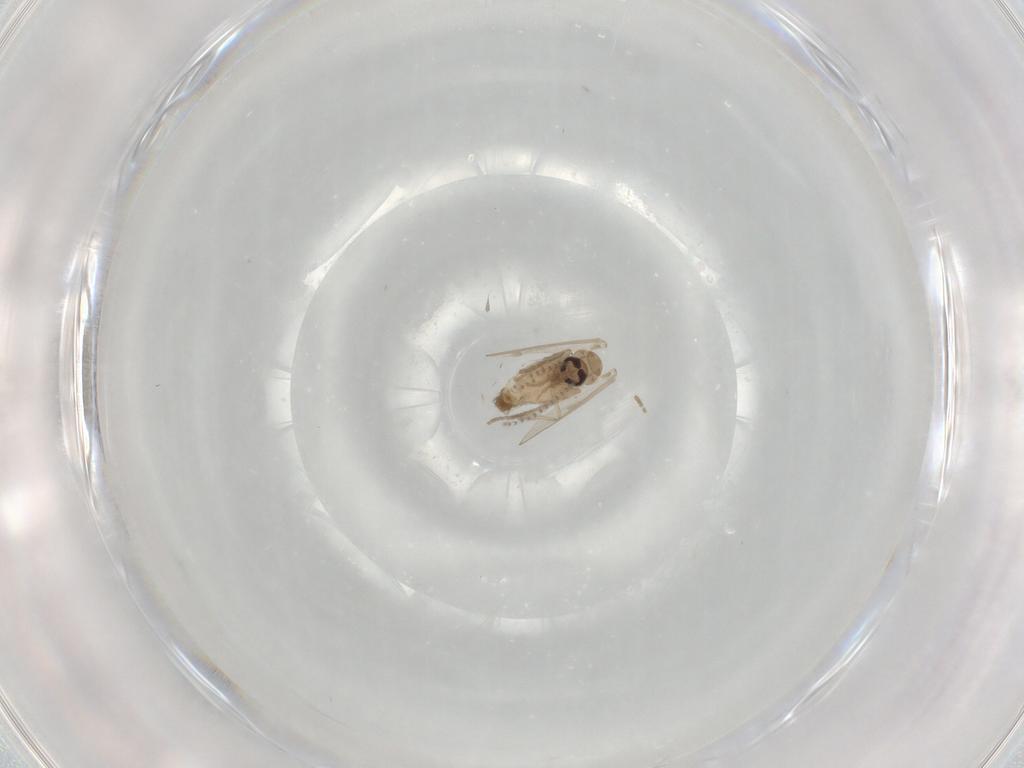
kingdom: Animalia
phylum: Arthropoda
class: Insecta
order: Diptera
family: Psychodidae
